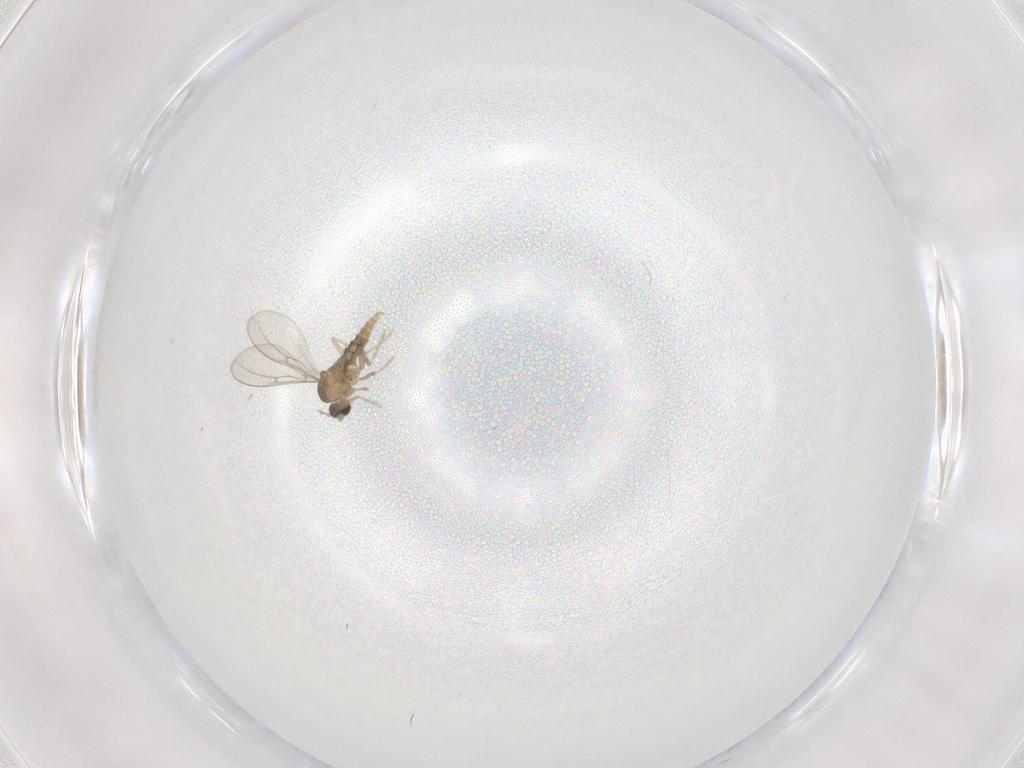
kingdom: Animalia
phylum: Arthropoda
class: Insecta
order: Diptera
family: Cecidomyiidae
